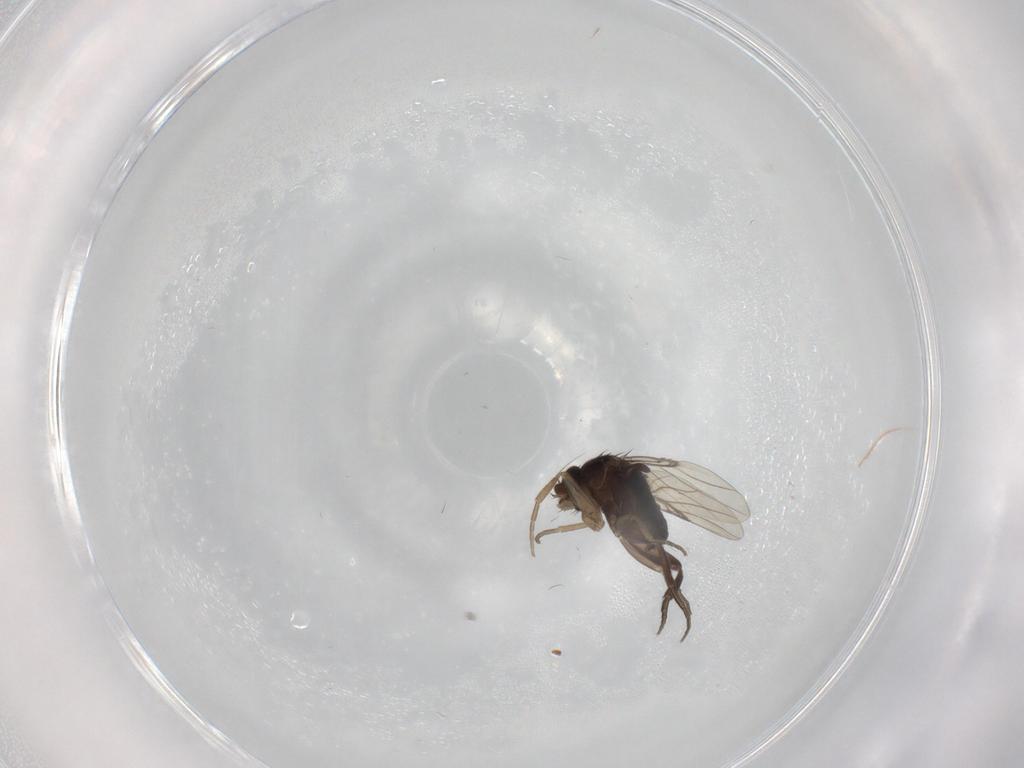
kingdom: Animalia
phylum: Arthropoda
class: Insecta
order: Diptera
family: Phoridae
